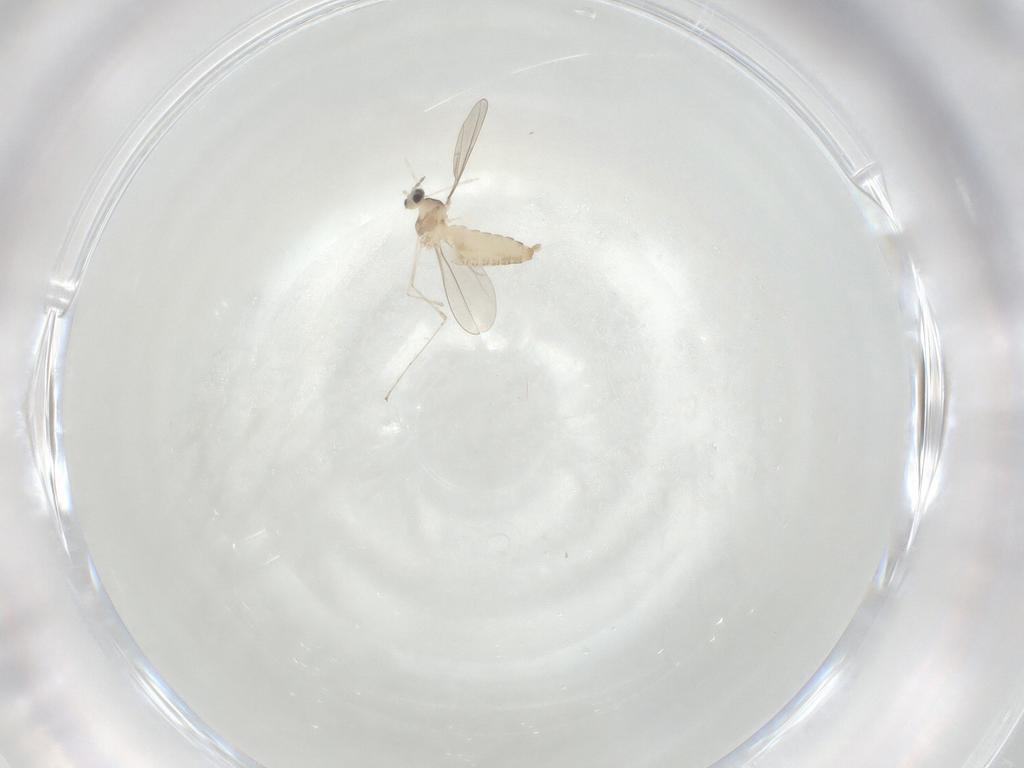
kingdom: Animalia
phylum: Arthropoda
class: Insecta
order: Diptera
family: Cecidomyiidae
